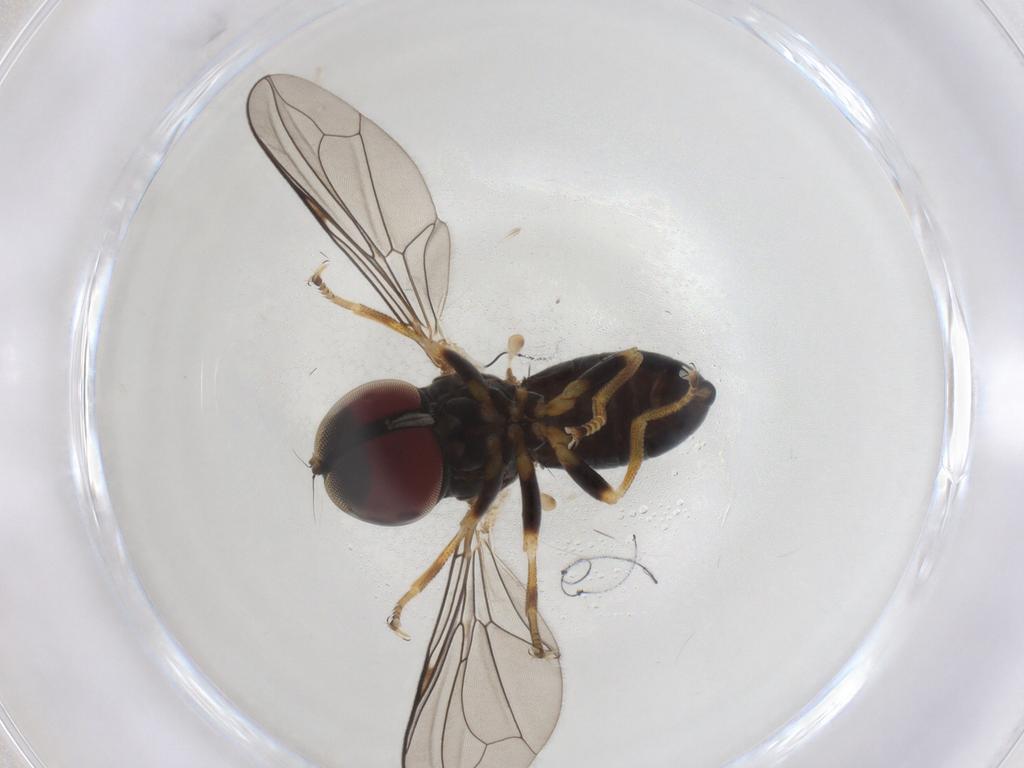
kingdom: Animalia
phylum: Arthropoda
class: Insecta
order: Diptera
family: Pipunculidae
